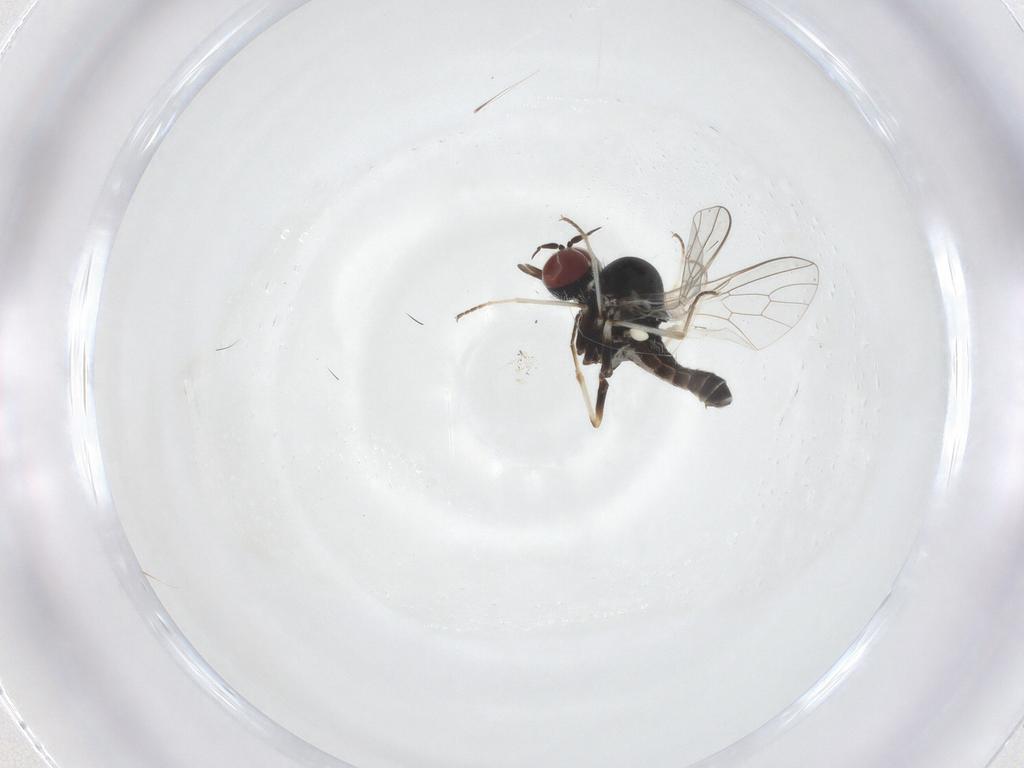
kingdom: Animalia
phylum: Arthropoda
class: Insecta
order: Diptera
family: Mythicomyiidae
